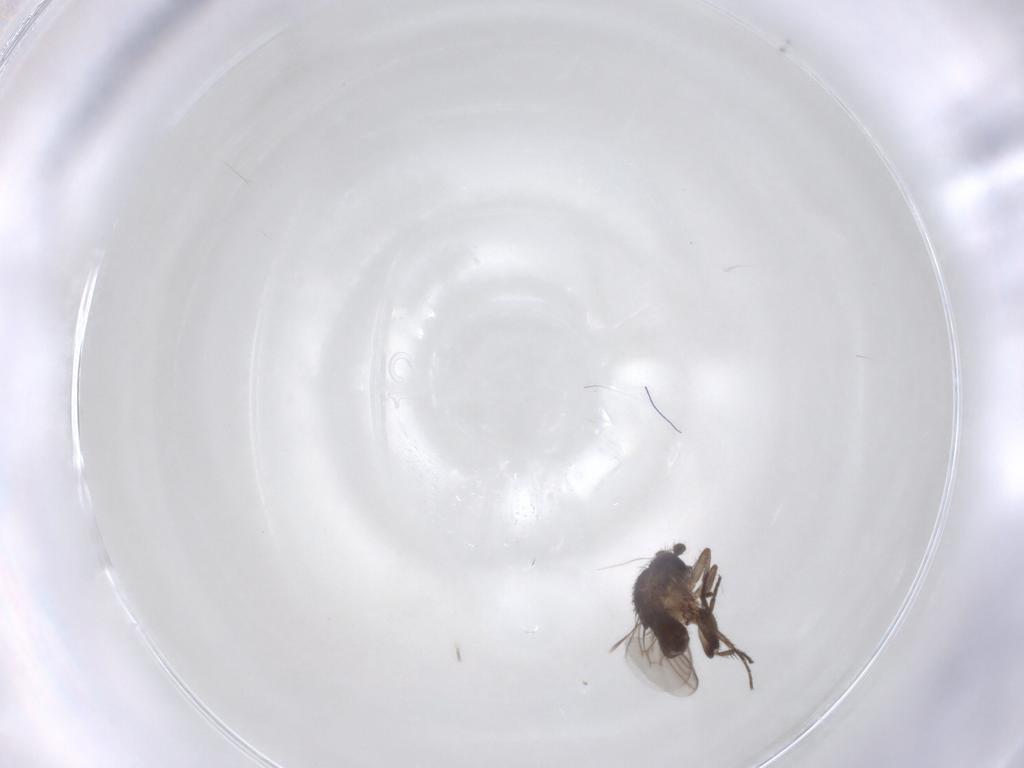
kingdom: Animalia
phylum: Arthropoda
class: Insecta
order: Diptera
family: Cecidomyiidae
